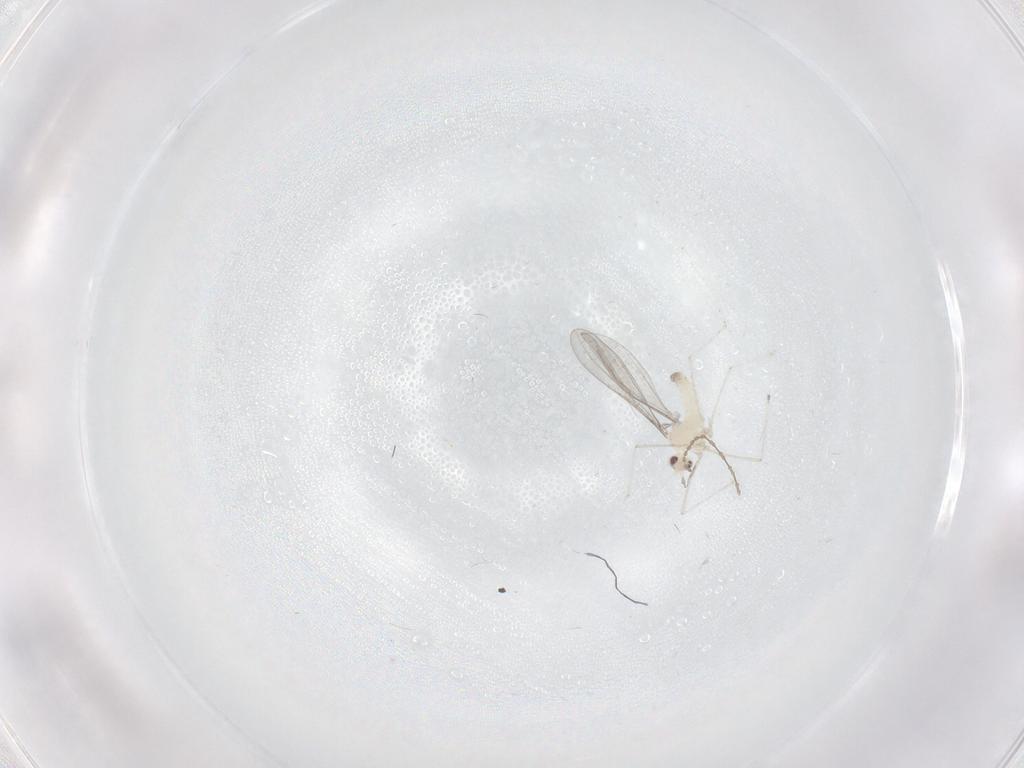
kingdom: Animalia
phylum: Arthropoda
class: Insecta
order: Diptera
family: Cecidomyiidae
